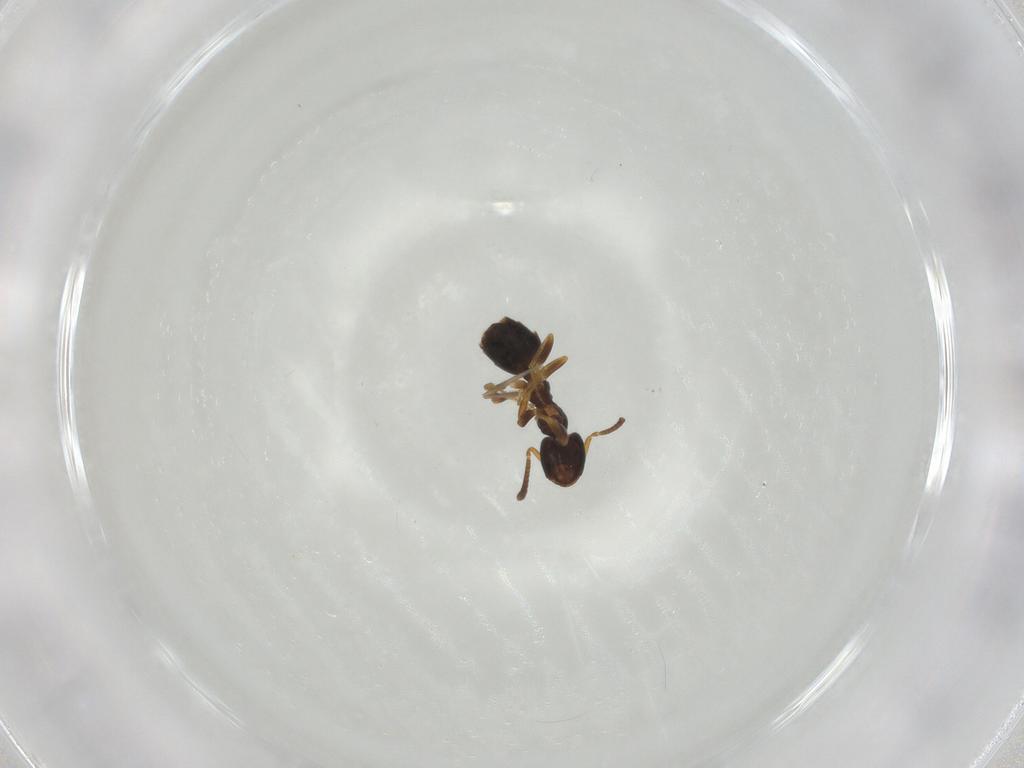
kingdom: Animalia
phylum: Arthropoda
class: Insecta
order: Hymenoptera
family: Formicidae
